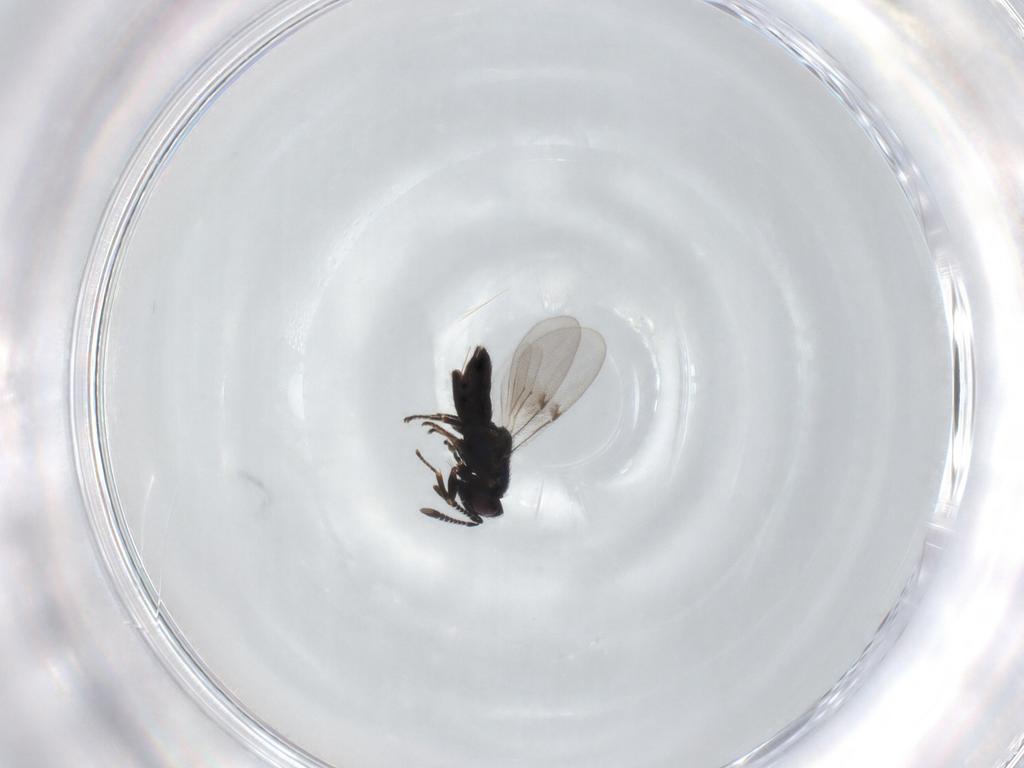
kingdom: Animalia
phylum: Arthropoda
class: Insecta
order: Hymenoptera
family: Encyrtidae
